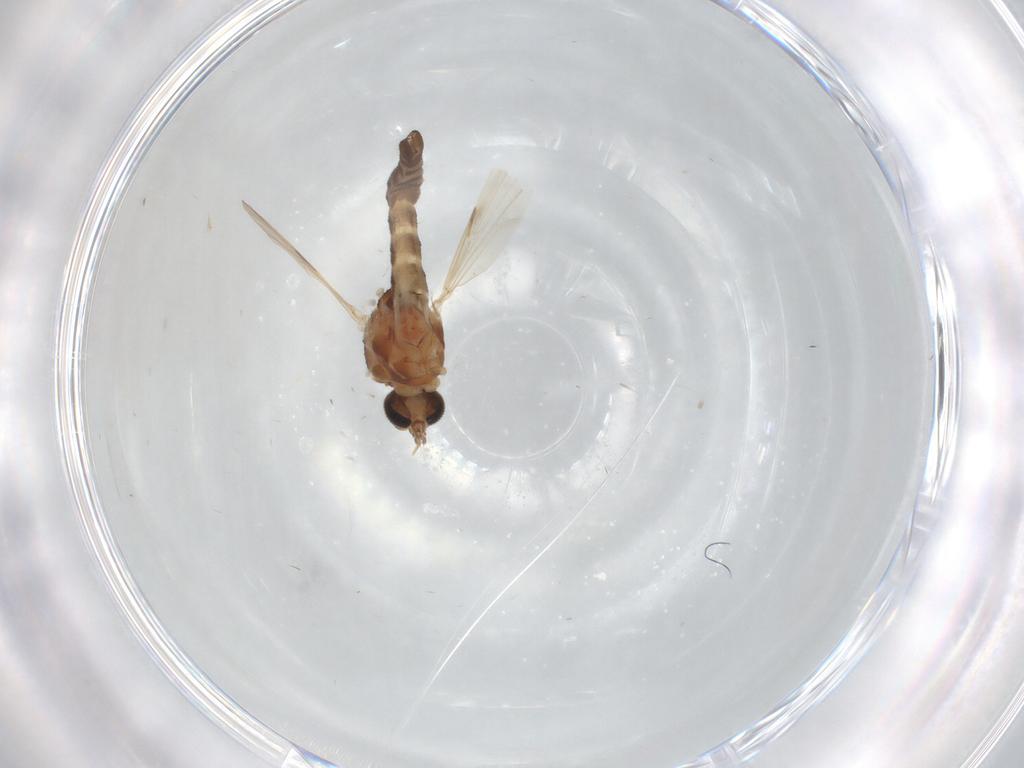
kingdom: Animalia
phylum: Arthropoda
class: Insecta
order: Diptera
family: Ceratopogonidae
